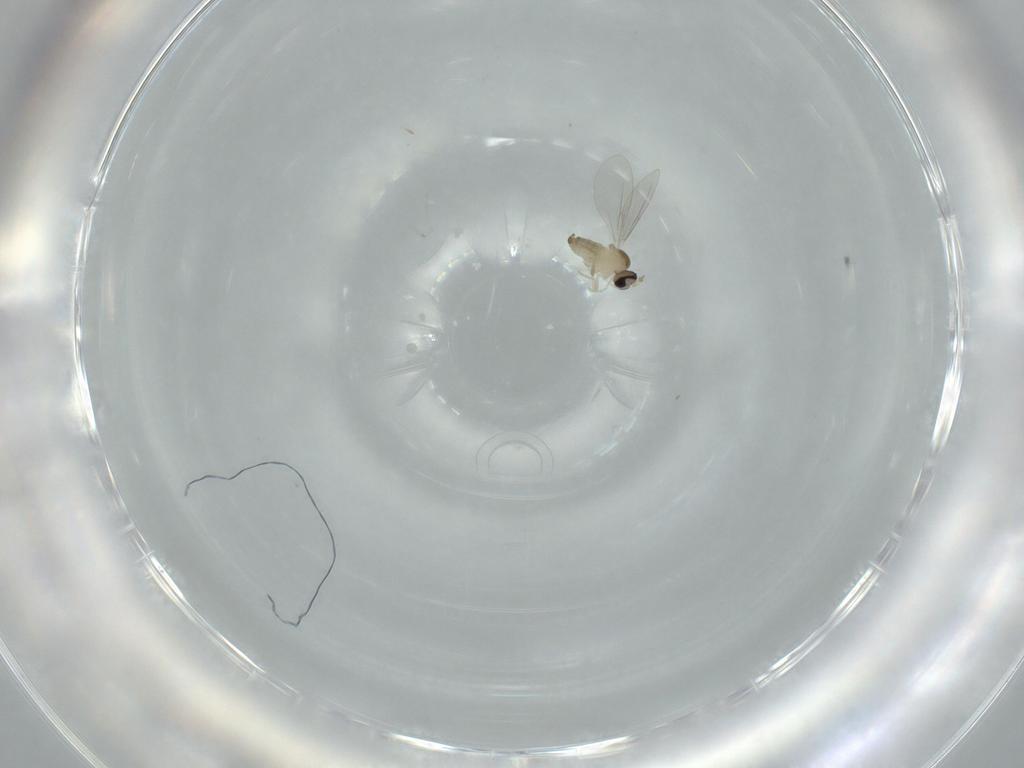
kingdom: Animalia
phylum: Arthropoda
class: Insecta
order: Diptera
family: Cecidomyiidae
